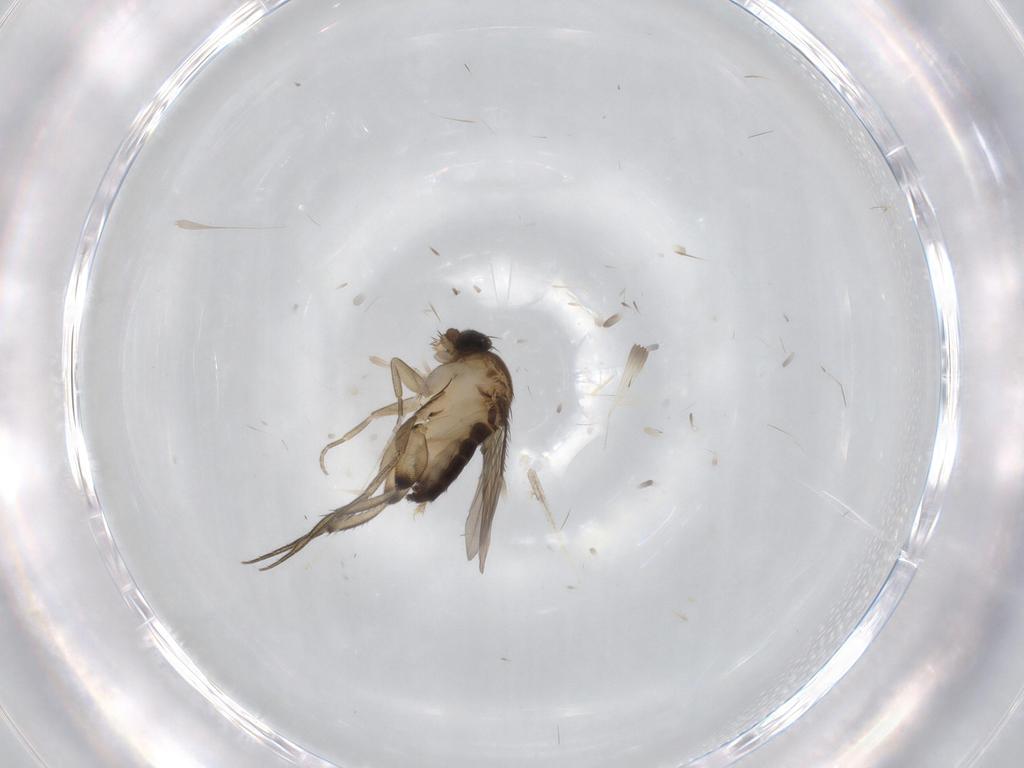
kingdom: Animalia
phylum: Arthropoda
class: Insecta
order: Diptera
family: Phoridae
